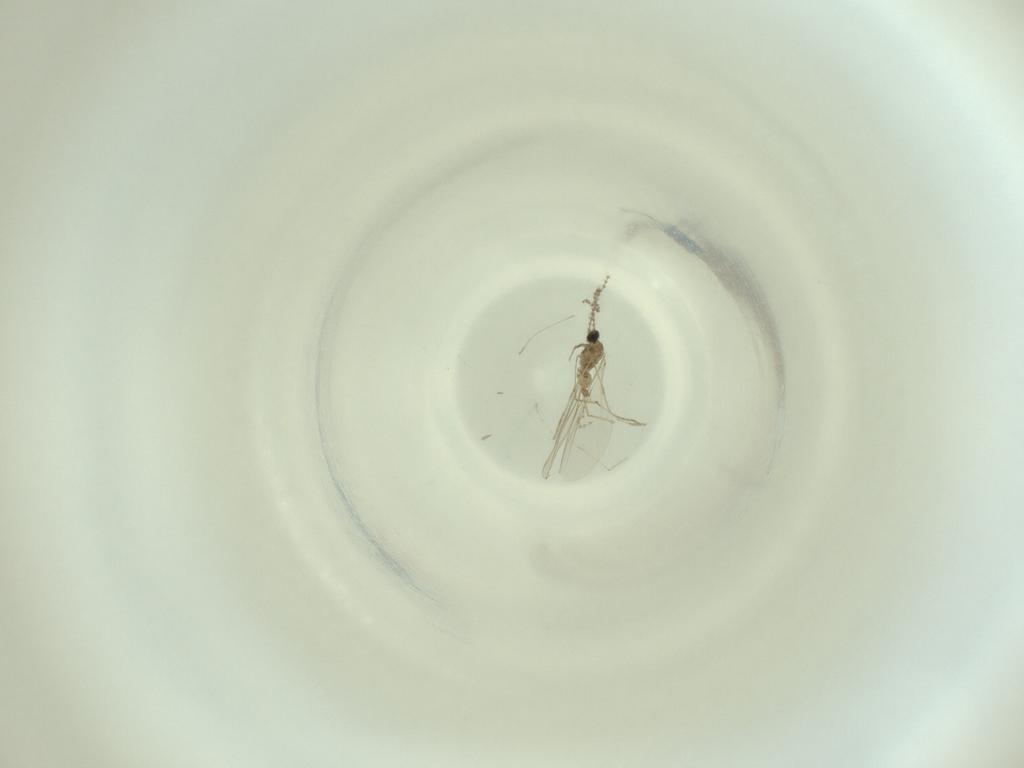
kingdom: Animalia
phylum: Arthropoda
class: Insecta
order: Diptera
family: Cecidomyiidae
